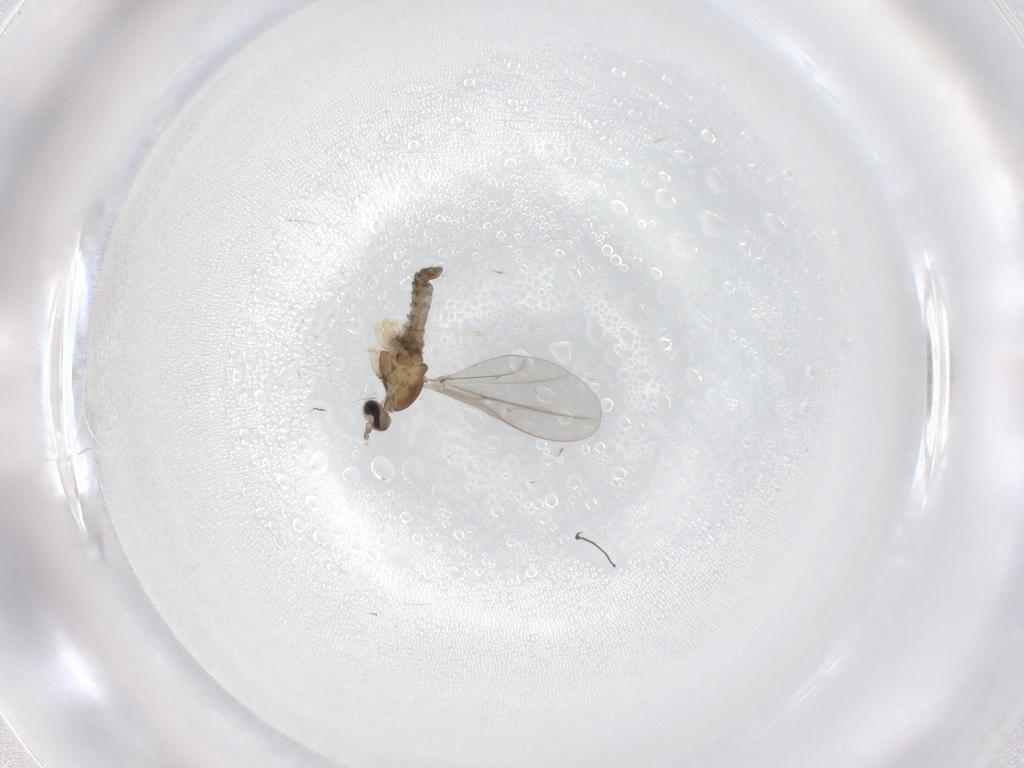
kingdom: Animalia
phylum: Arthropoda
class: Insecta
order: Diptera
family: Cecidomyiidae
